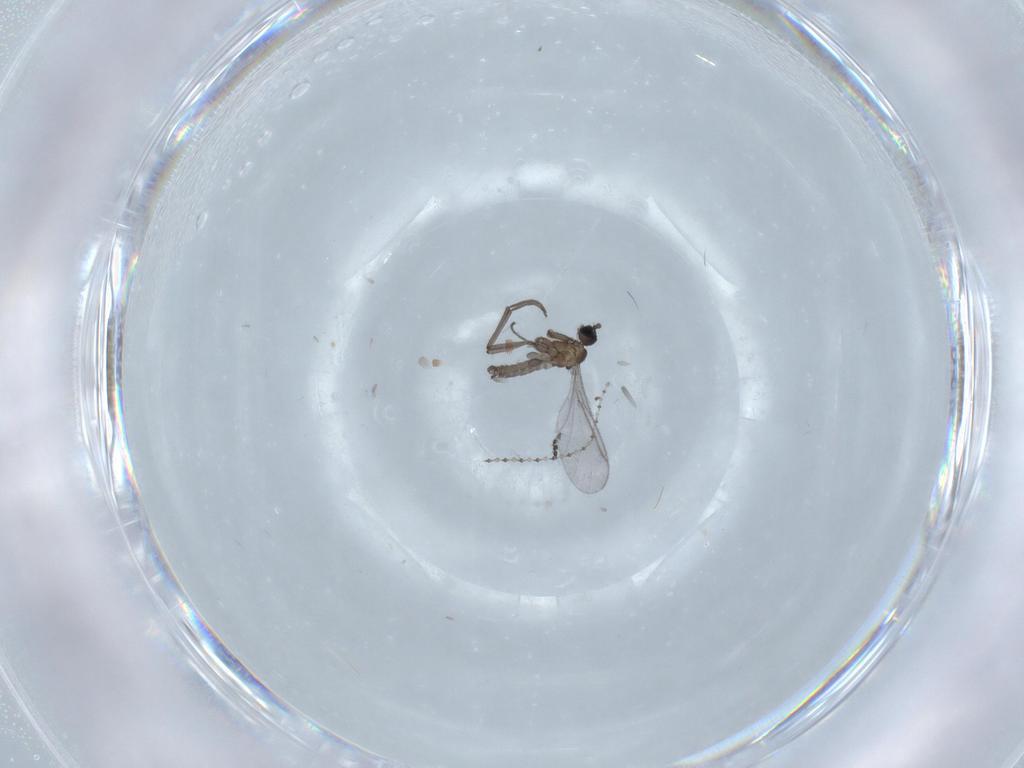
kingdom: Animalia
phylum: Arthropoda
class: Insecta
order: Diptera
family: Sciaridae
